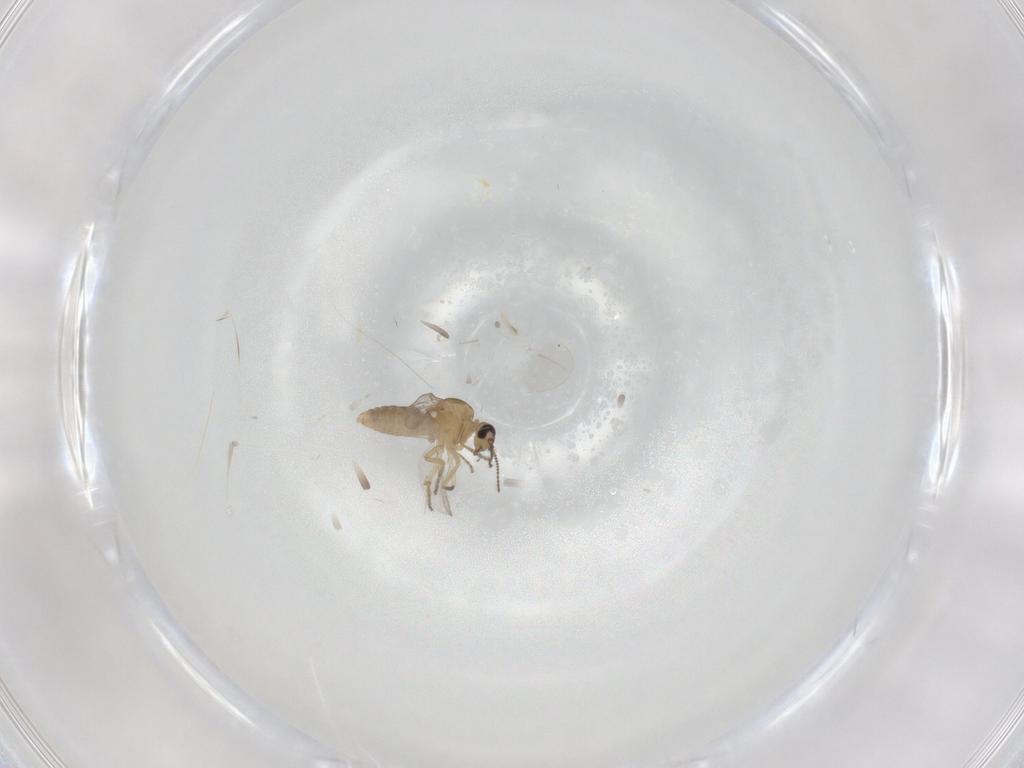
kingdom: Animalia
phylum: Arthropoda
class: Insecta
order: Diptera
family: Ceratopogonidae
